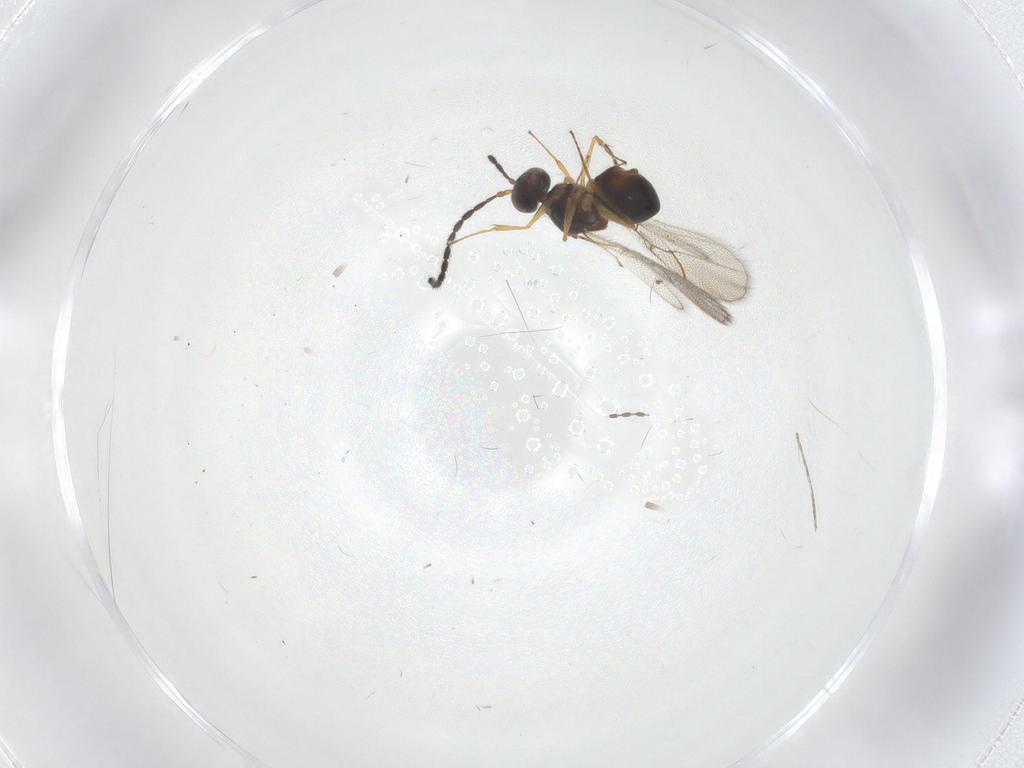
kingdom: Animalia
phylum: Arthropoda
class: Insecta
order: Hymenoptera
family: Figitidae
